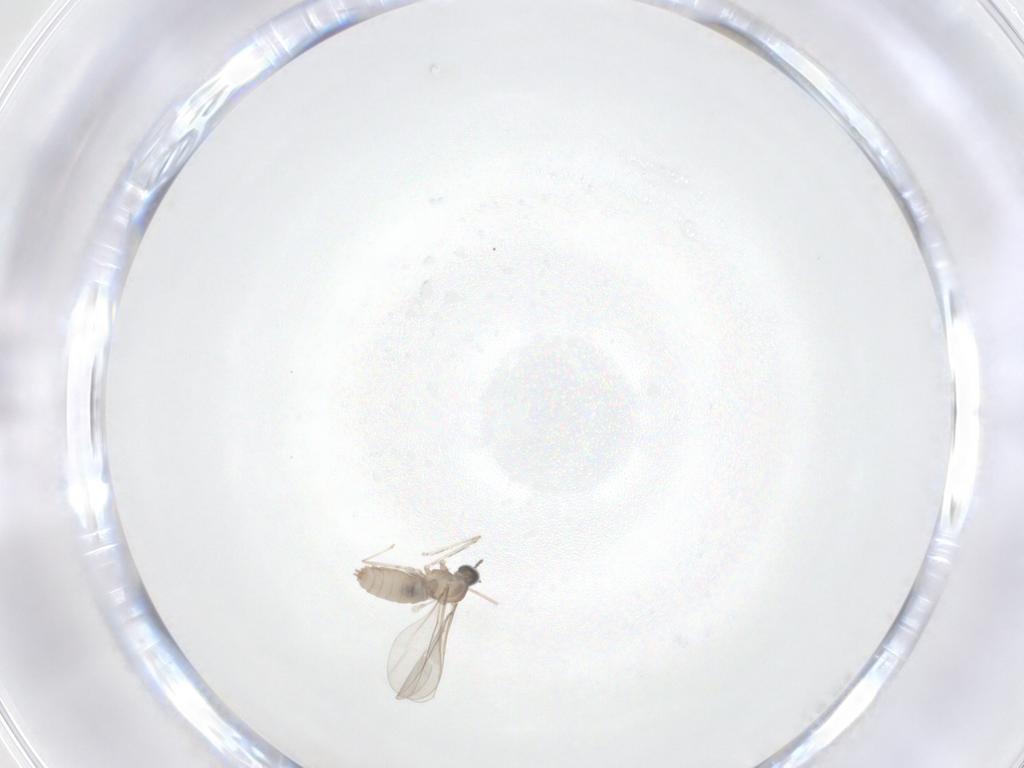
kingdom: Animalia
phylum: Arthropoda
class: Insecta
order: Diptera
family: Cecidomyiidae
